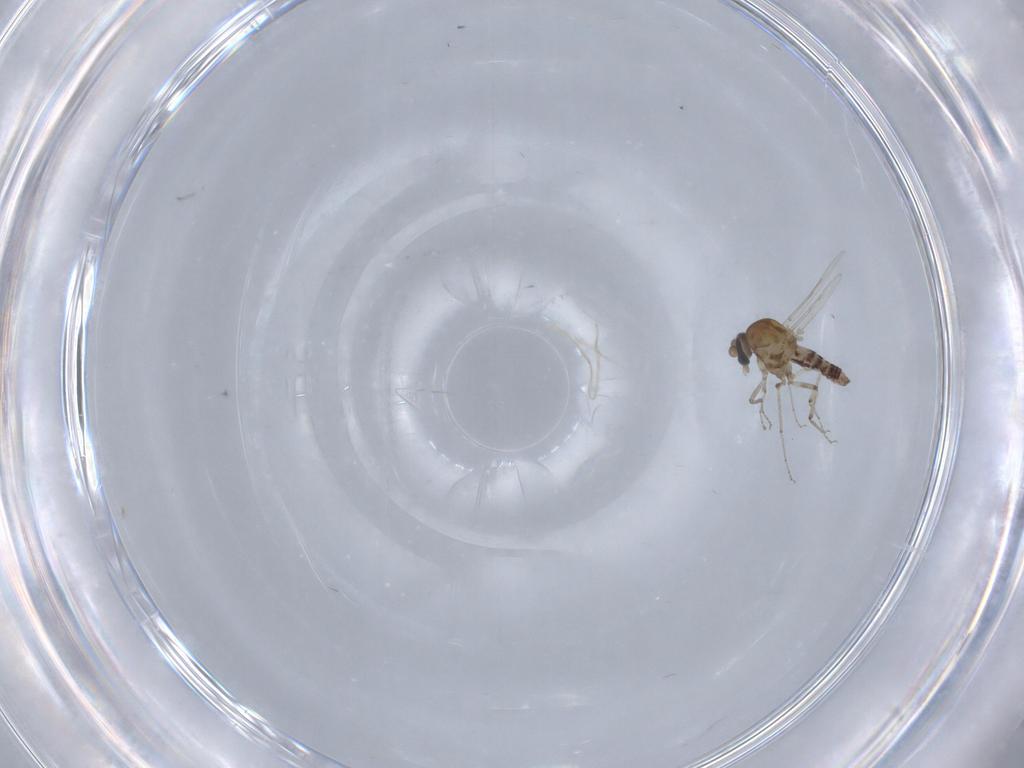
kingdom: Animalia
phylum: Arthropoda
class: Insecta
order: Diptera
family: Ceratopogonidae
